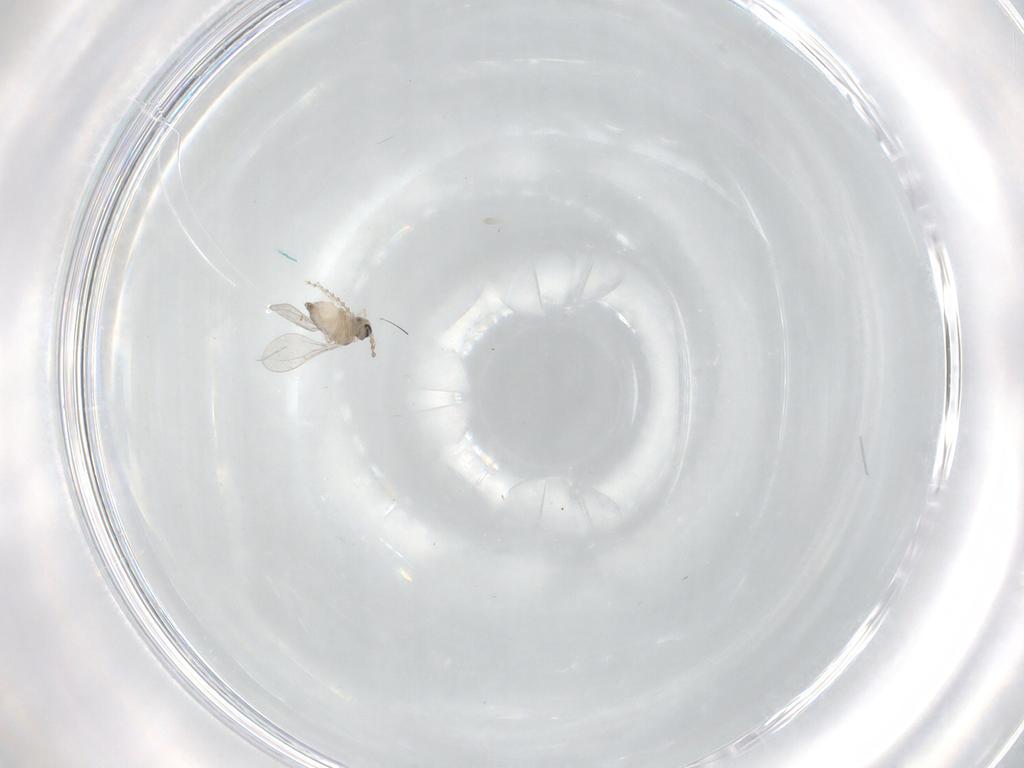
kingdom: Animalia
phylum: Arthropoda
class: Insecta
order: Diptera
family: Cecidomyiidae
